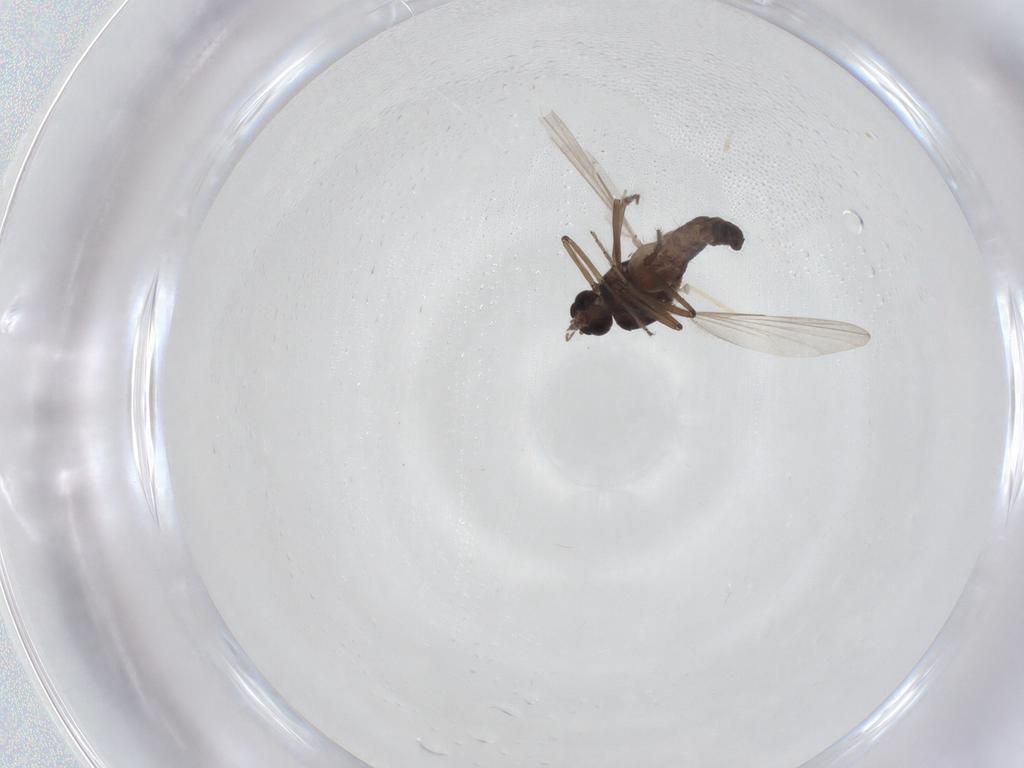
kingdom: Animalia
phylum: Arthropoda
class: Insecta
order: Diptera
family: Ceratopogonidae
